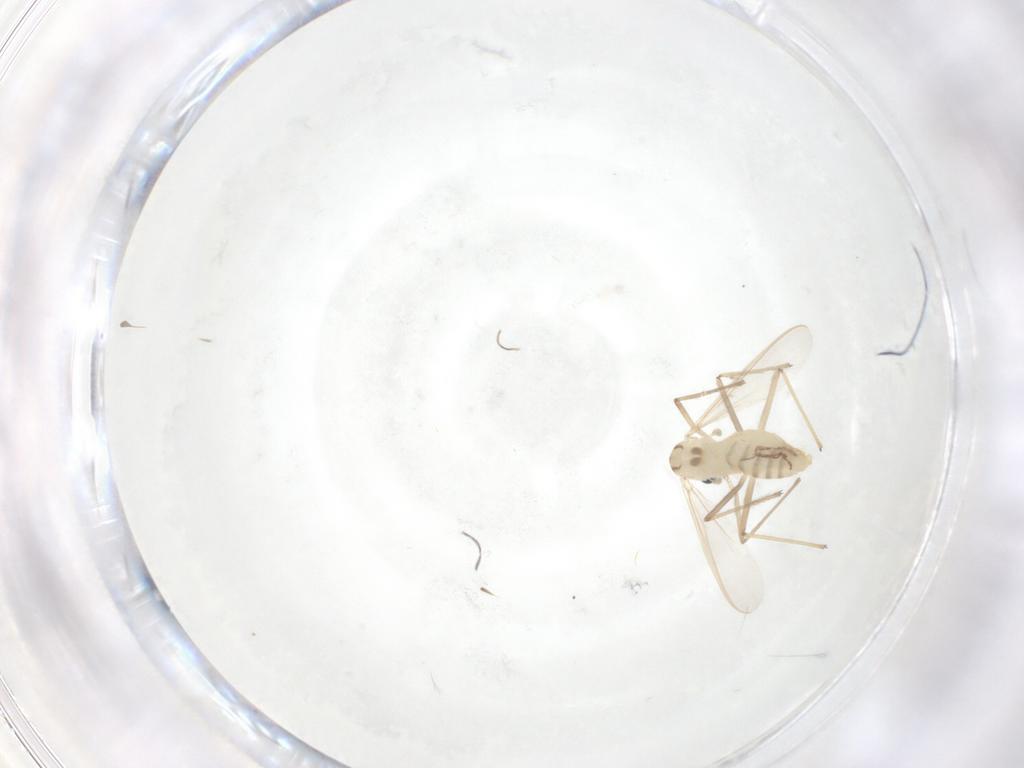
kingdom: Animalia
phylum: Arthropoda
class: Insecta
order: Diptera
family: Chironomidae
